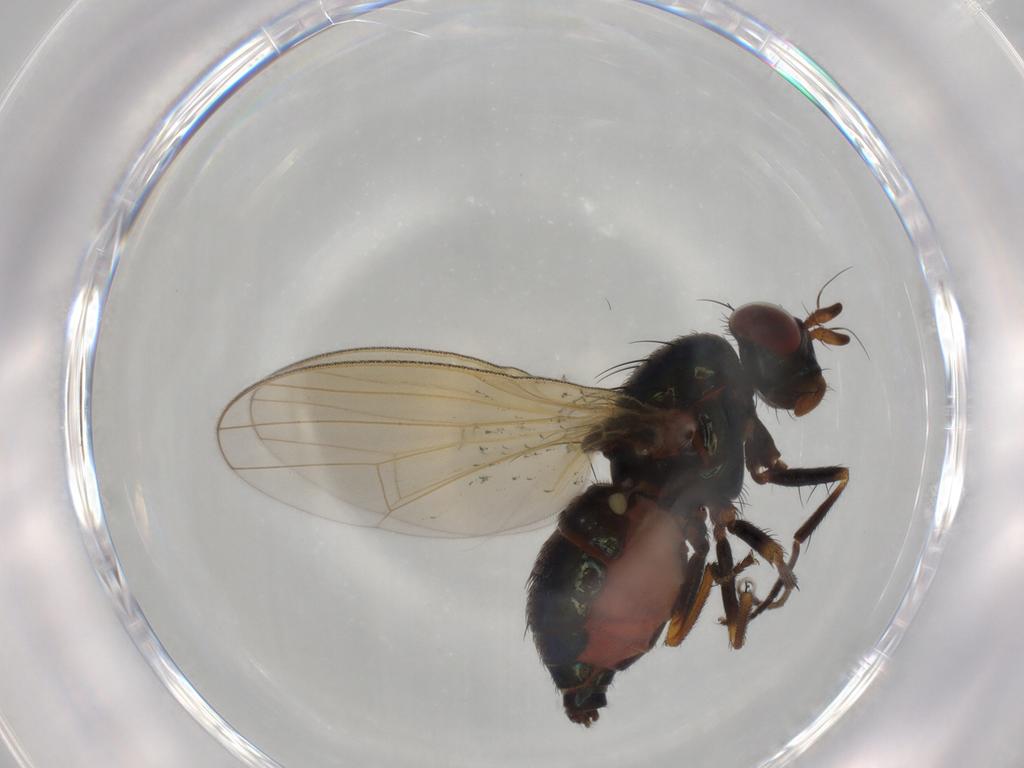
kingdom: Animalia
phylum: Arthropoda
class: Insecta
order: Diptera
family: Lauxaniidae
